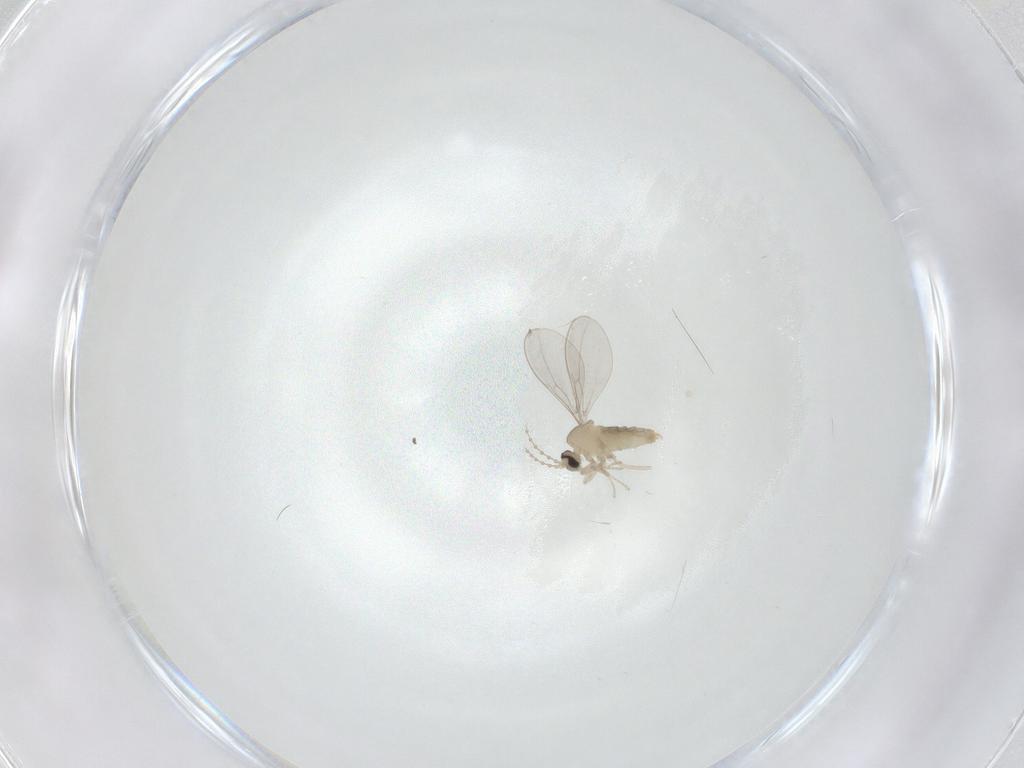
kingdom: Animalia
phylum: Arthropoda
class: Insecta
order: Diptera
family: Cecidomyiidae
